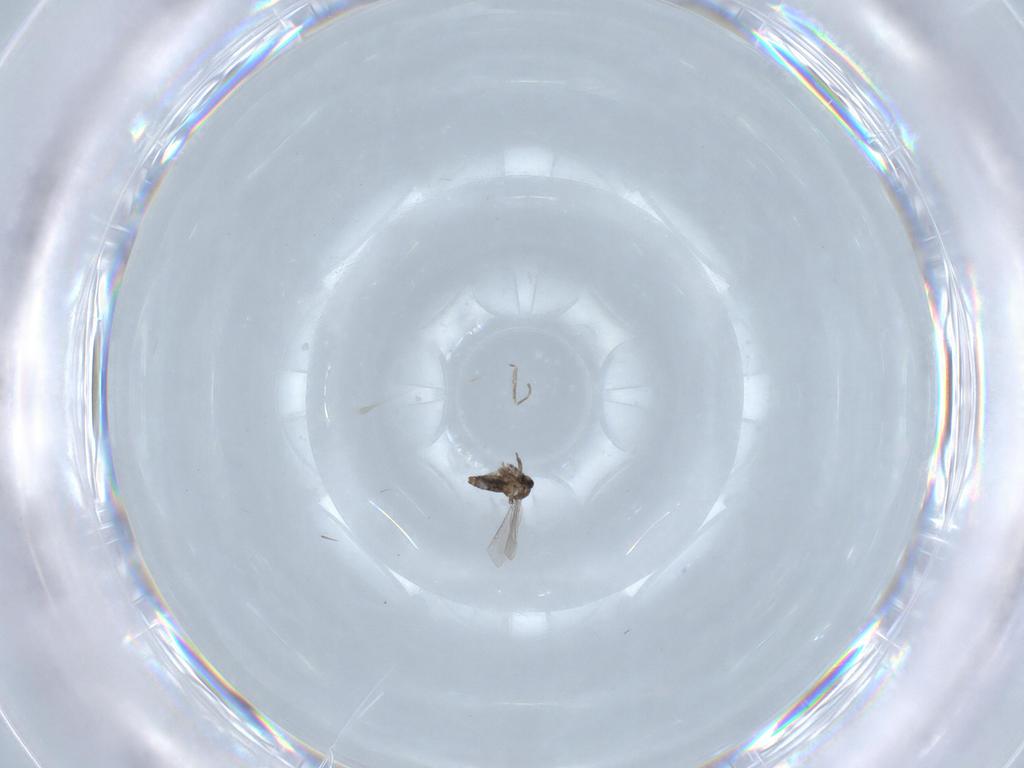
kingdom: Animalia
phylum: Arthropoda
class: Insecta
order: Diptera
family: Cecidomyiidae
